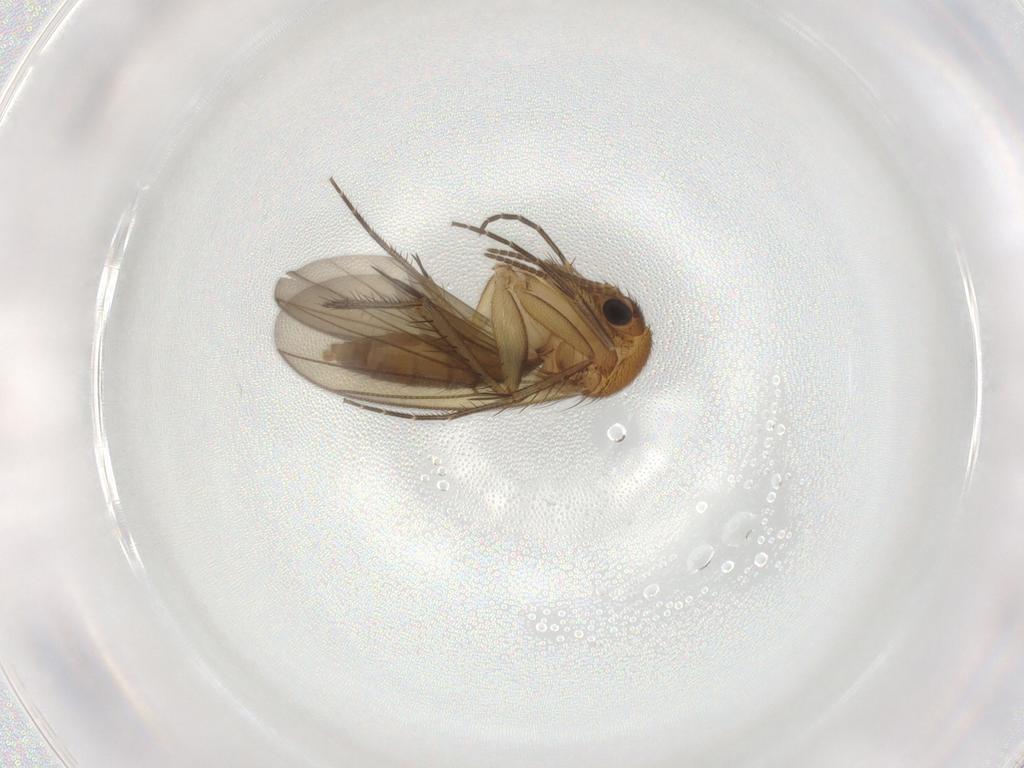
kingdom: Animalia
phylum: Arthropoda
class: Insecta
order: Diptera
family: Mycetophilidae
